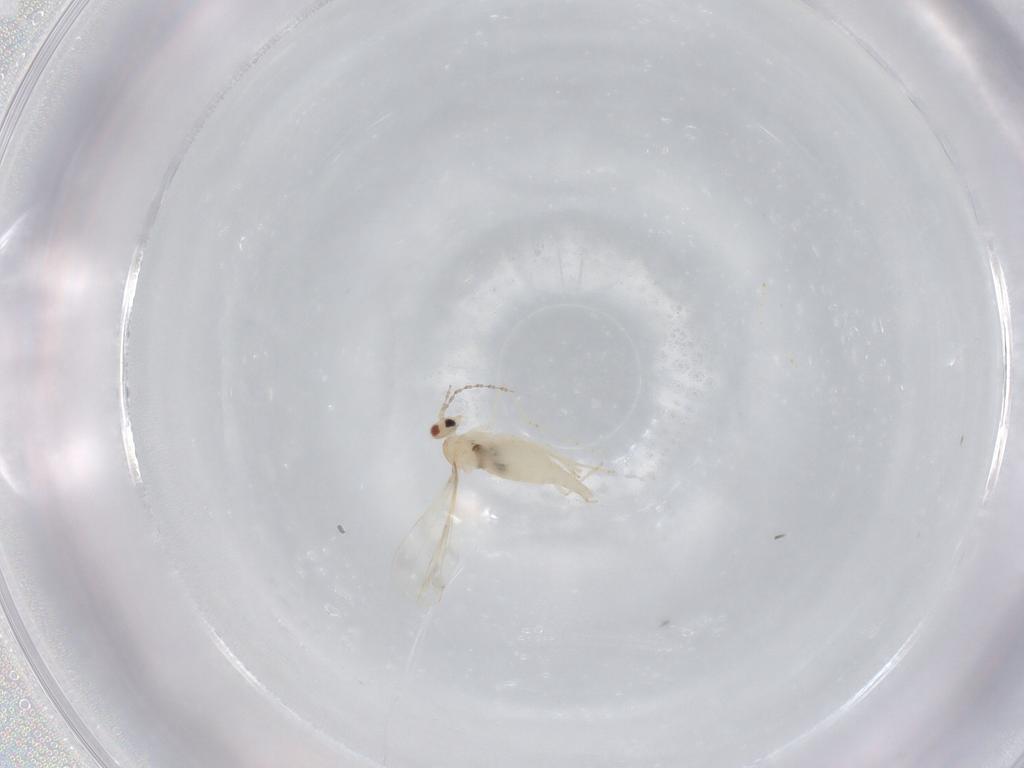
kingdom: Animalia
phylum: Arthropoda
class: Insecta
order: Diptera
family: Cecidomyiidae
